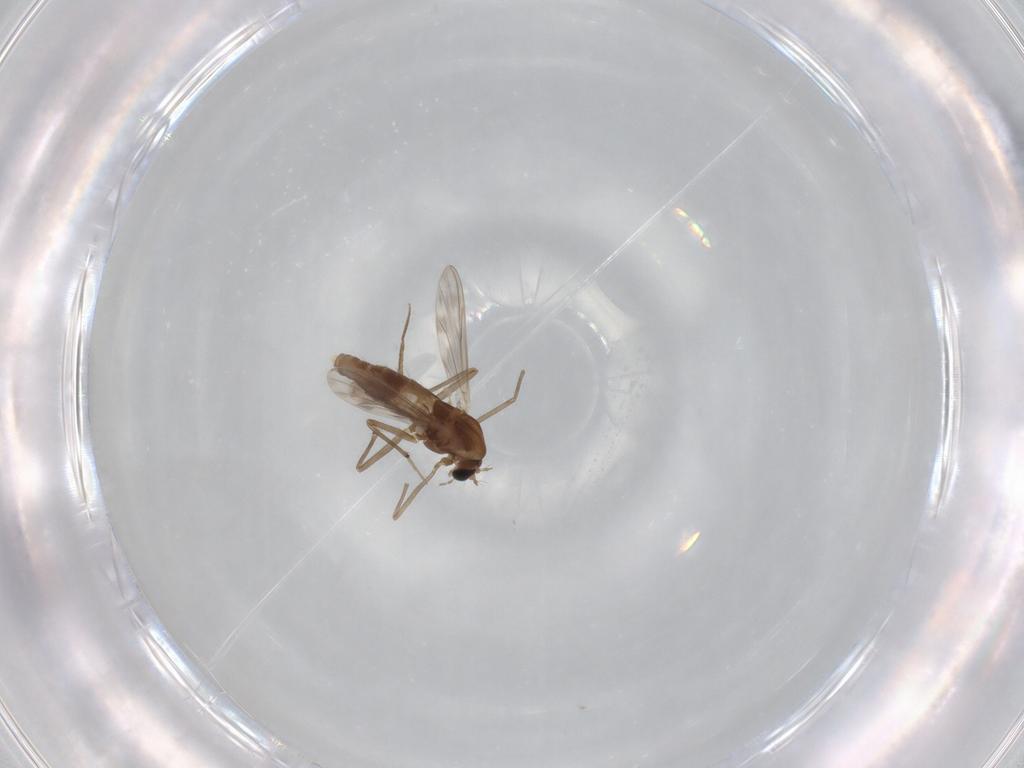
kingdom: Animalia
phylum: Arthropoda
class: Insecta
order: Diptera
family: Chironomidae
